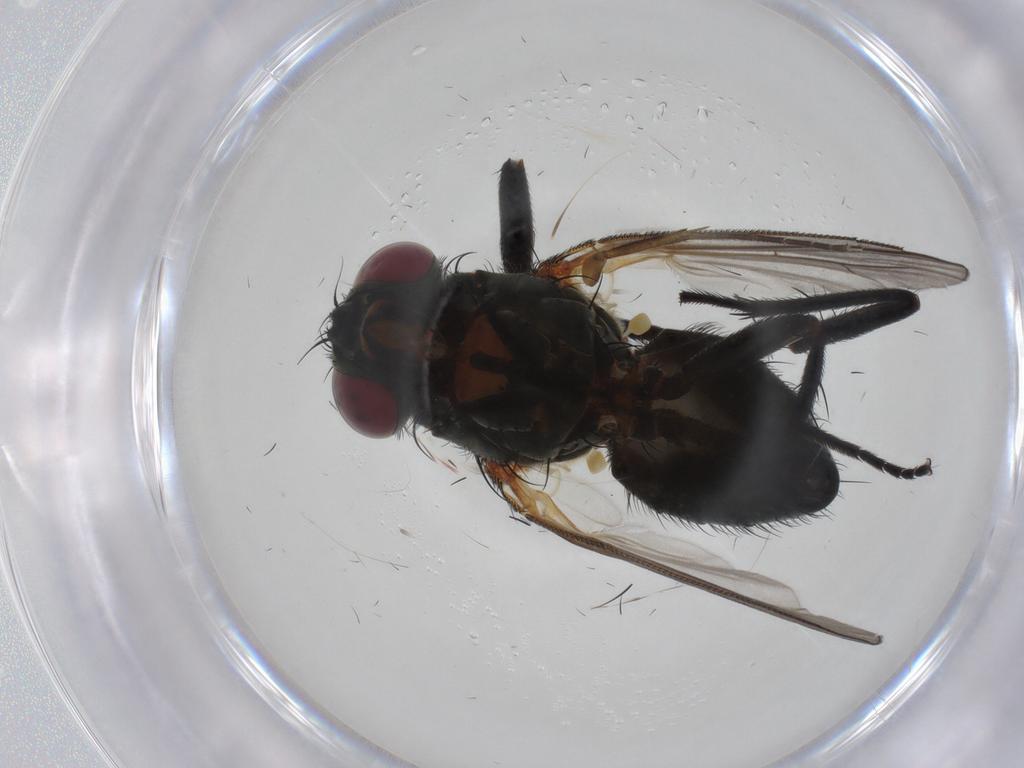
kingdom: Animalia
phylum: Arthropoda
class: Insecta
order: Diptera
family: Fannia
